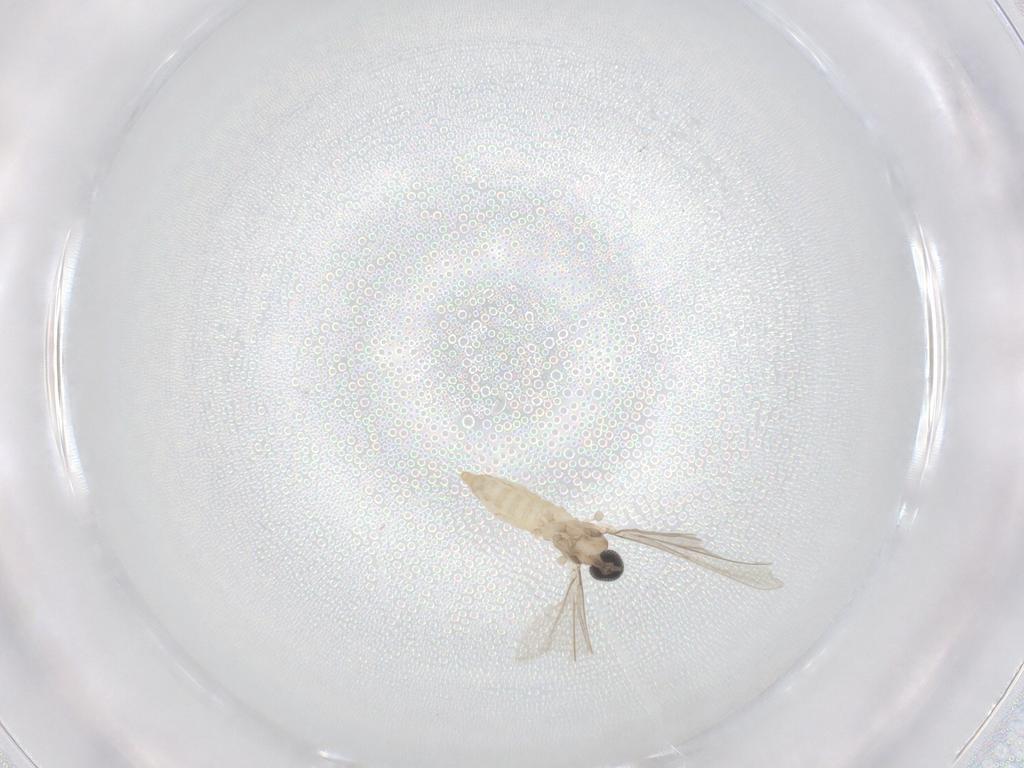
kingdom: Animalia
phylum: Arthropoda
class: Insecta
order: Diptera
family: Cecidomyiidae
